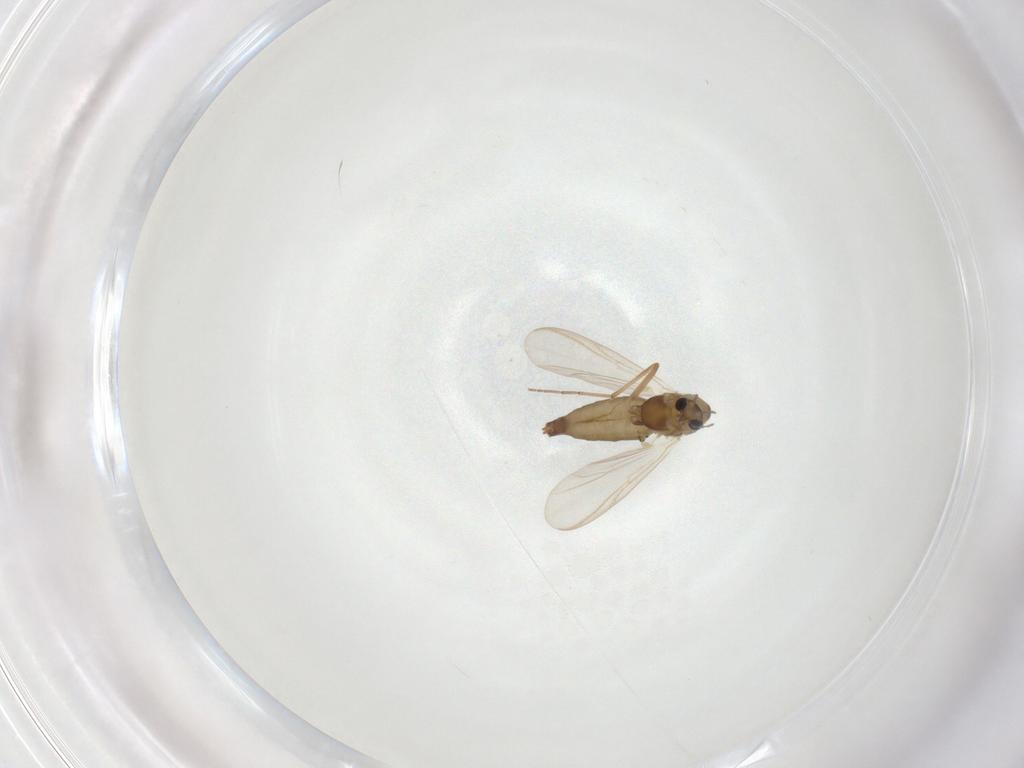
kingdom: Animalia
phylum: Arthropoda
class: Insecta
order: Diptera
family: Chironomidae
